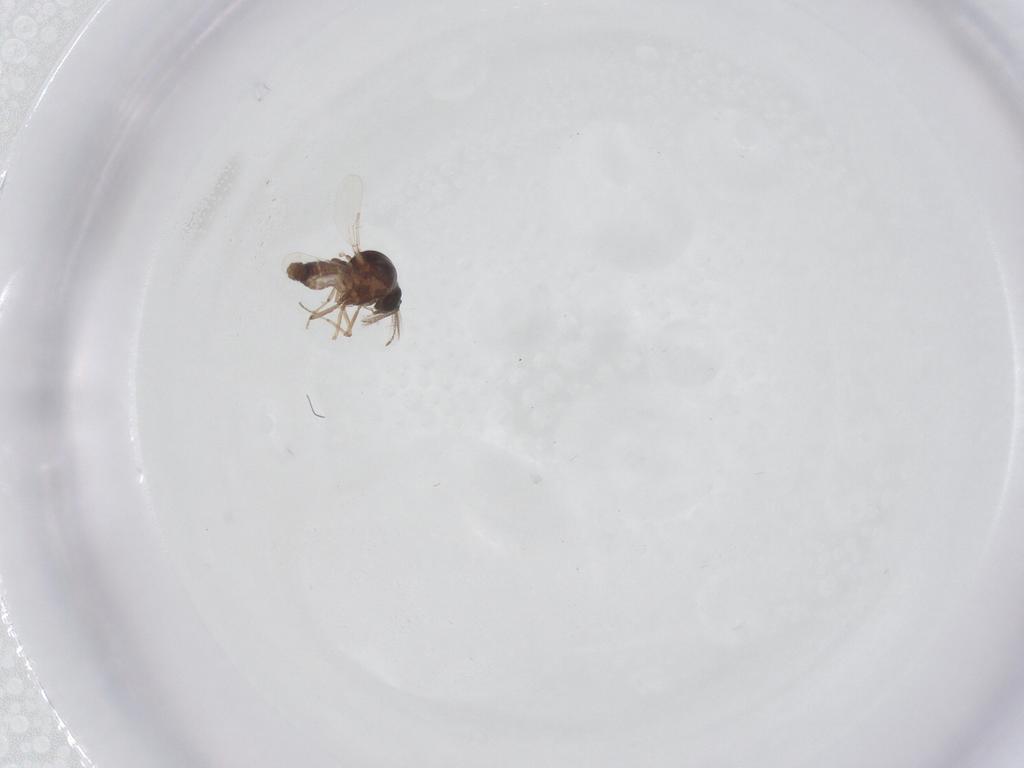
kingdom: Animalia
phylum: Arthropoda
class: Insecta
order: Diptera
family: Ceratopogonidae
